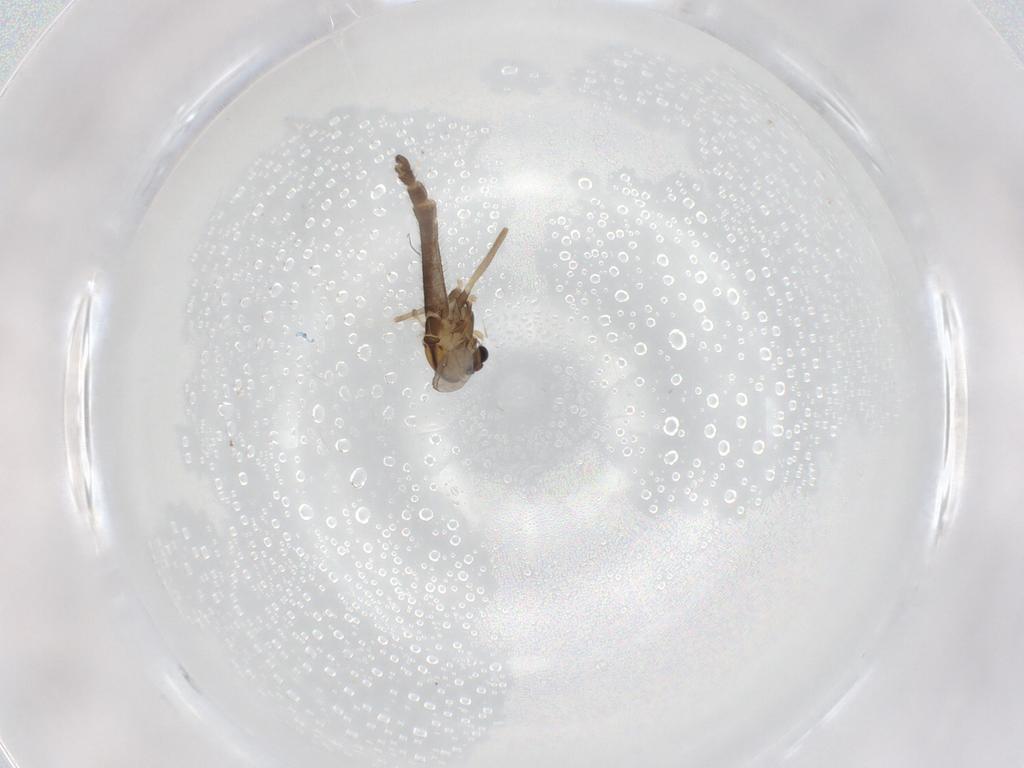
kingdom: Animalia
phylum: Arthropoda
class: Insecta
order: Diptera
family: Chironomidae
